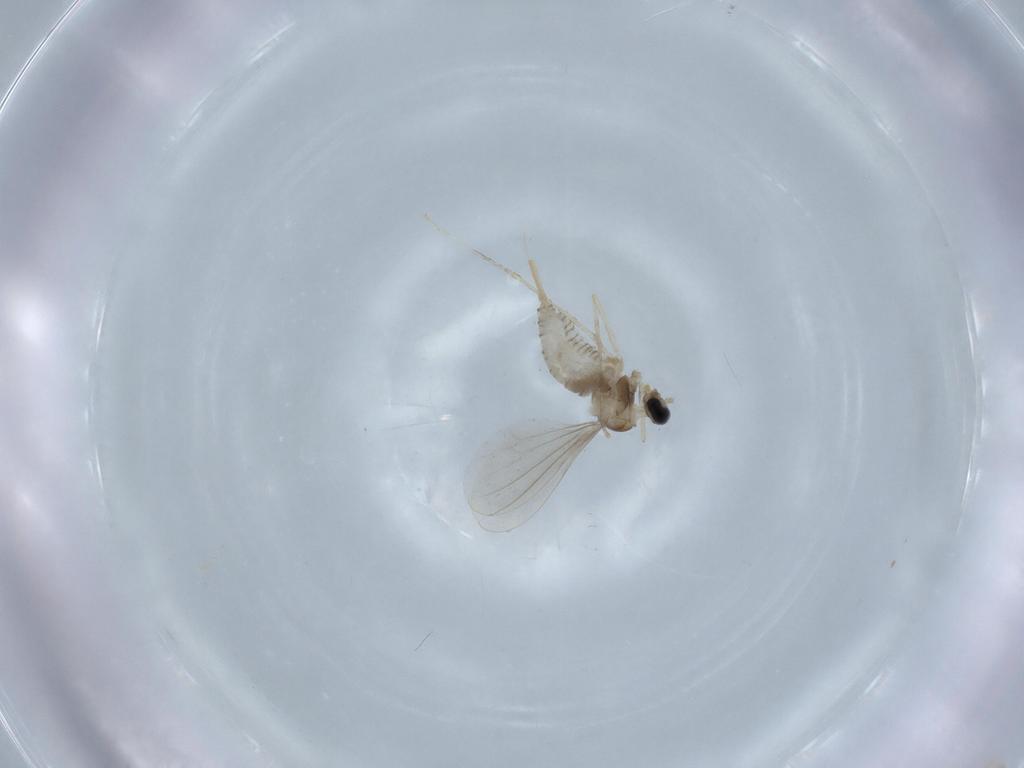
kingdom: Animalia
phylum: Arthropoda
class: Insecta
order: Diptera
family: Cecidomyiidae
